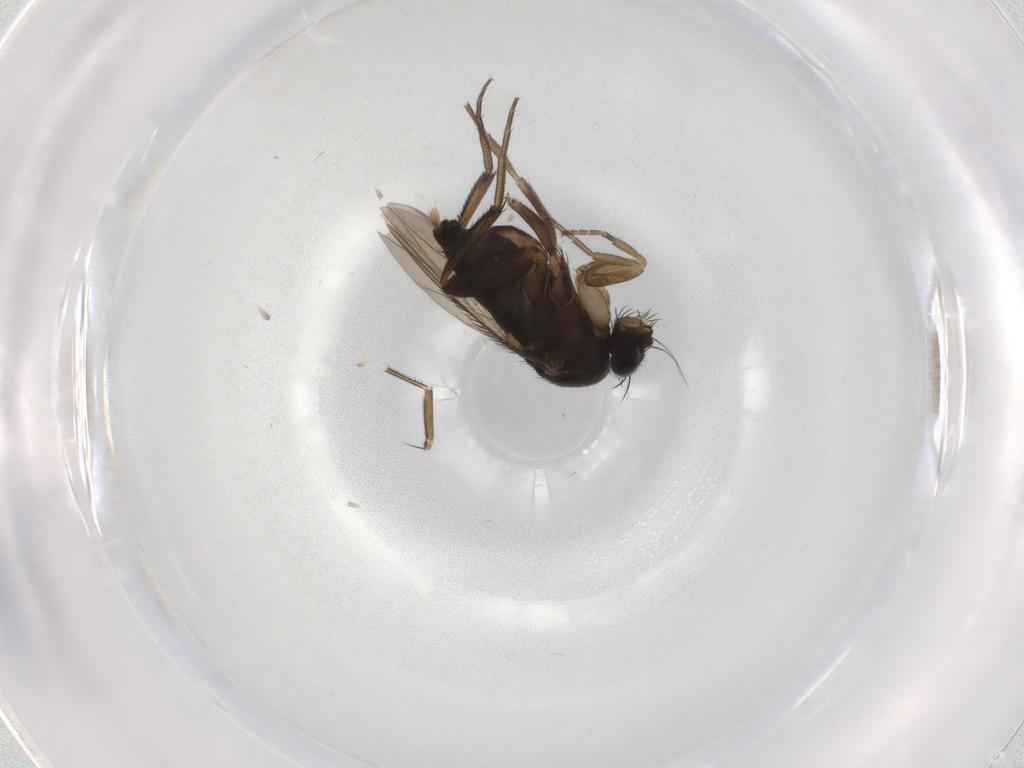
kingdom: Animalia
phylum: Arthropoda
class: Insecta
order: Diptera
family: Phoridae
